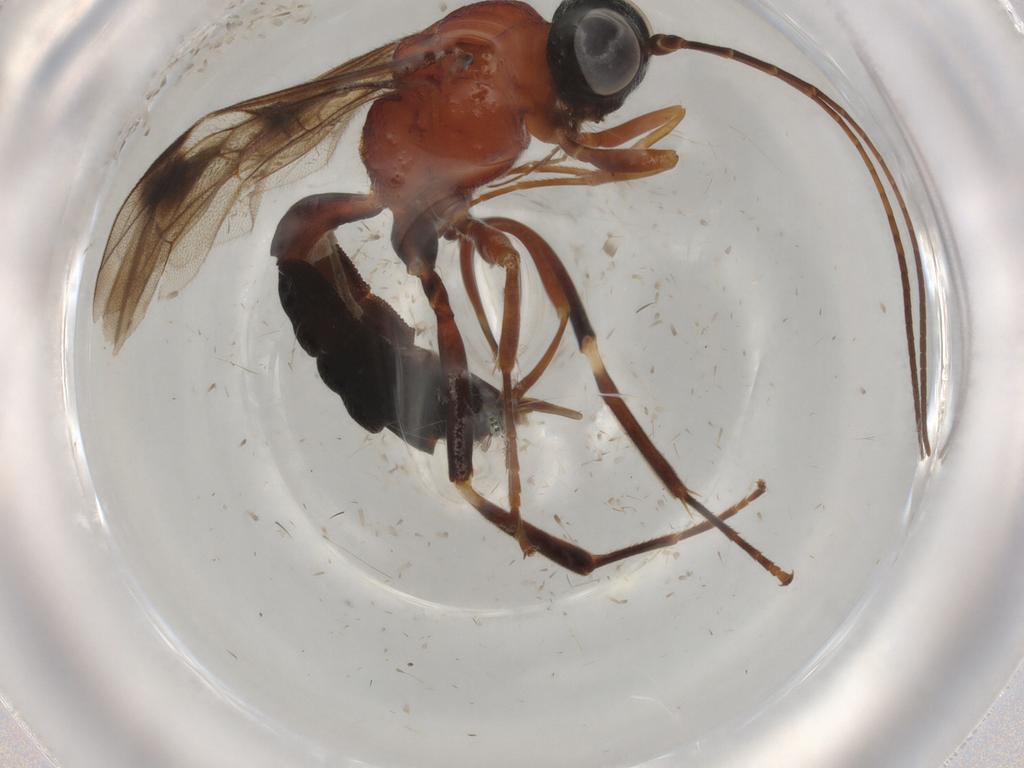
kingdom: Animalia
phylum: Arthropoda
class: Insecta
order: Hymenoptera
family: Ichneumonidae
